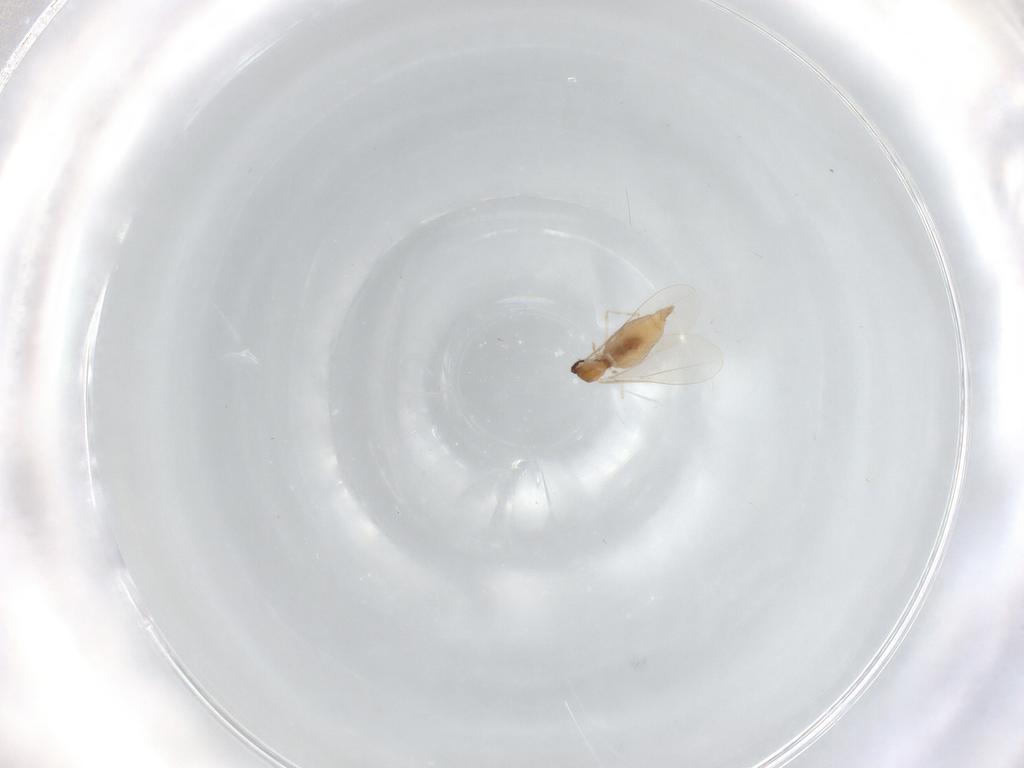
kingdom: Animalia
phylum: Arthropoda
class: Insecta
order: Diptera
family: Cecidomyiidae
